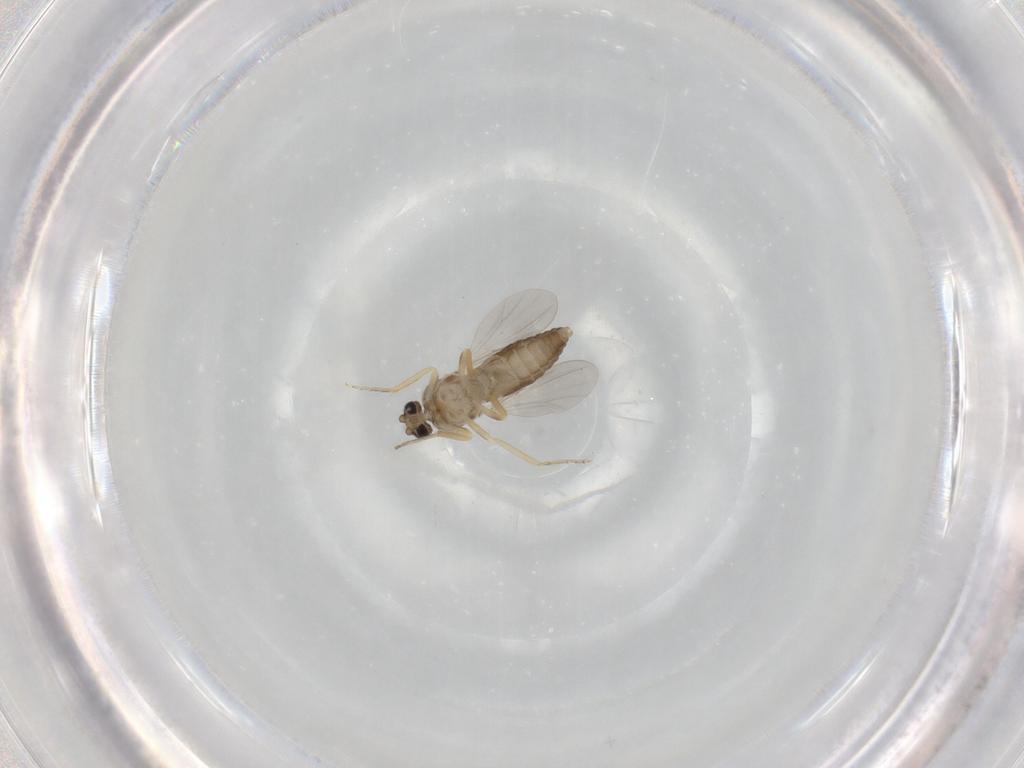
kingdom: Animalia
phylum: Arthropoda
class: Insecta
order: Diptera
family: Ceratopogonidae
